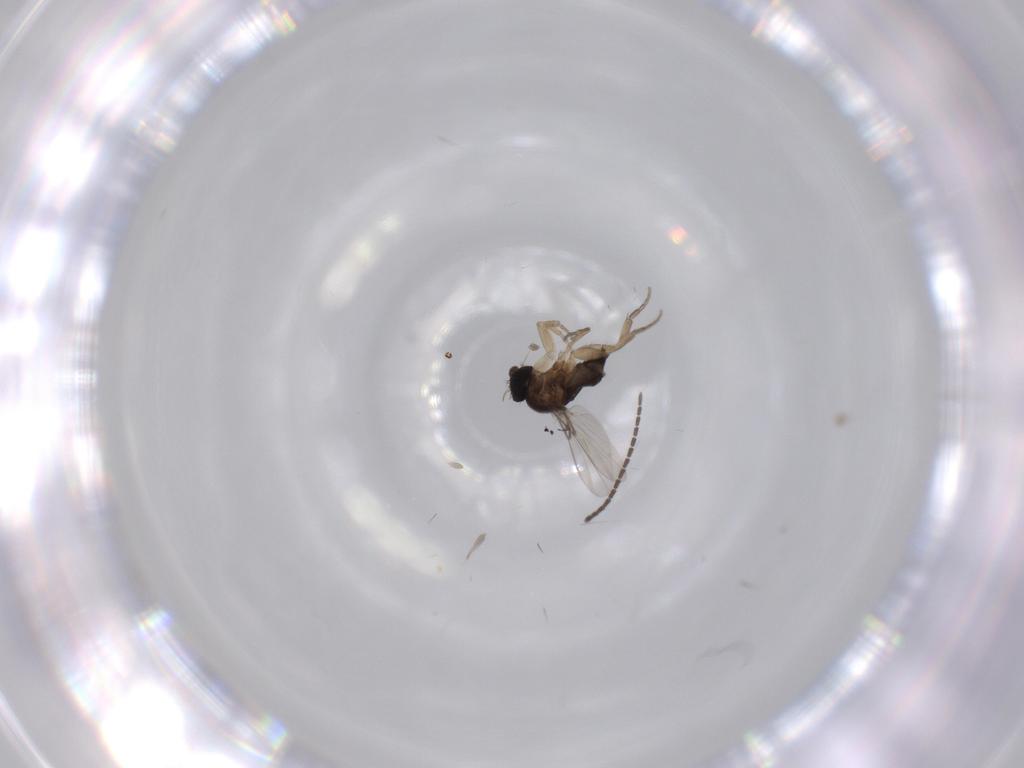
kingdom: Animalia
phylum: Arthropoda
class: Insecta
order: Diptera
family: Phoridae
